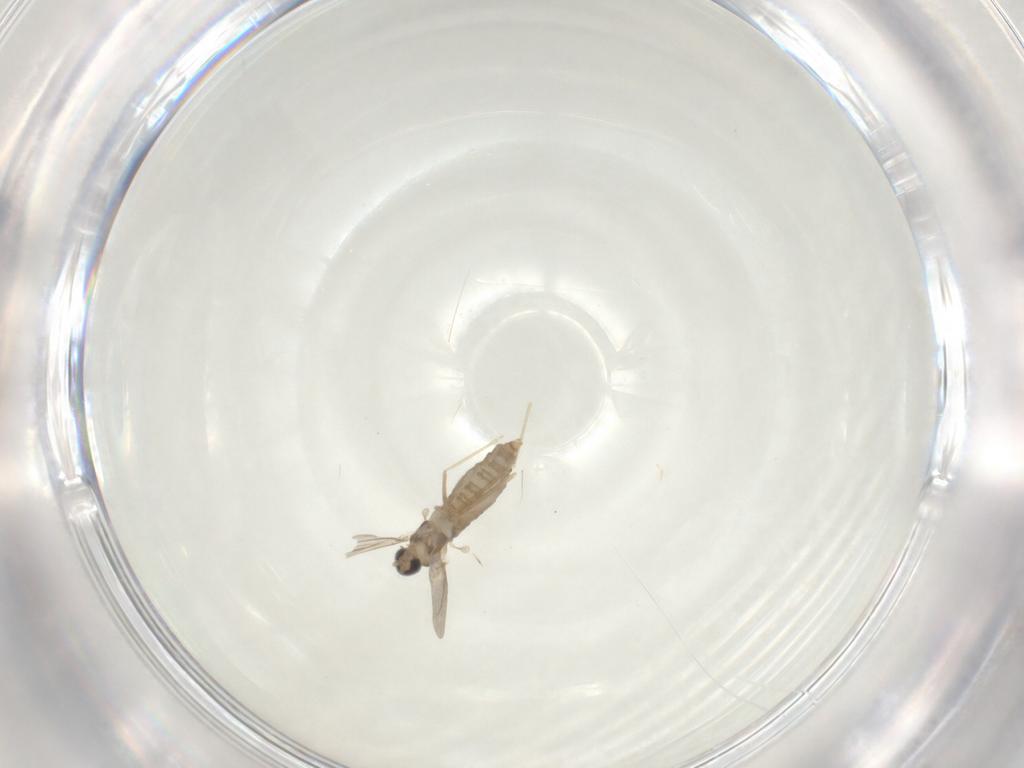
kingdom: Animalia
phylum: Arthropoda
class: Insecta
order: Diptera
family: Cecidomyiidae
